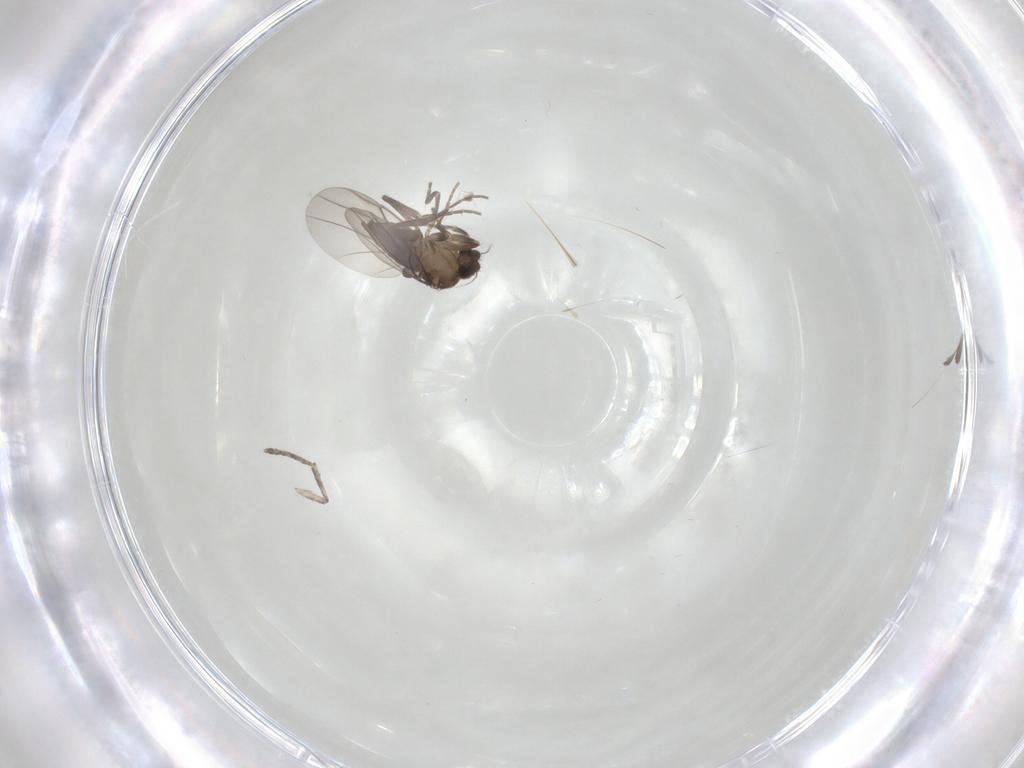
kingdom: Animalia
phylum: Arthropoda
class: Insecta
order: Diptera
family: Phoridae
